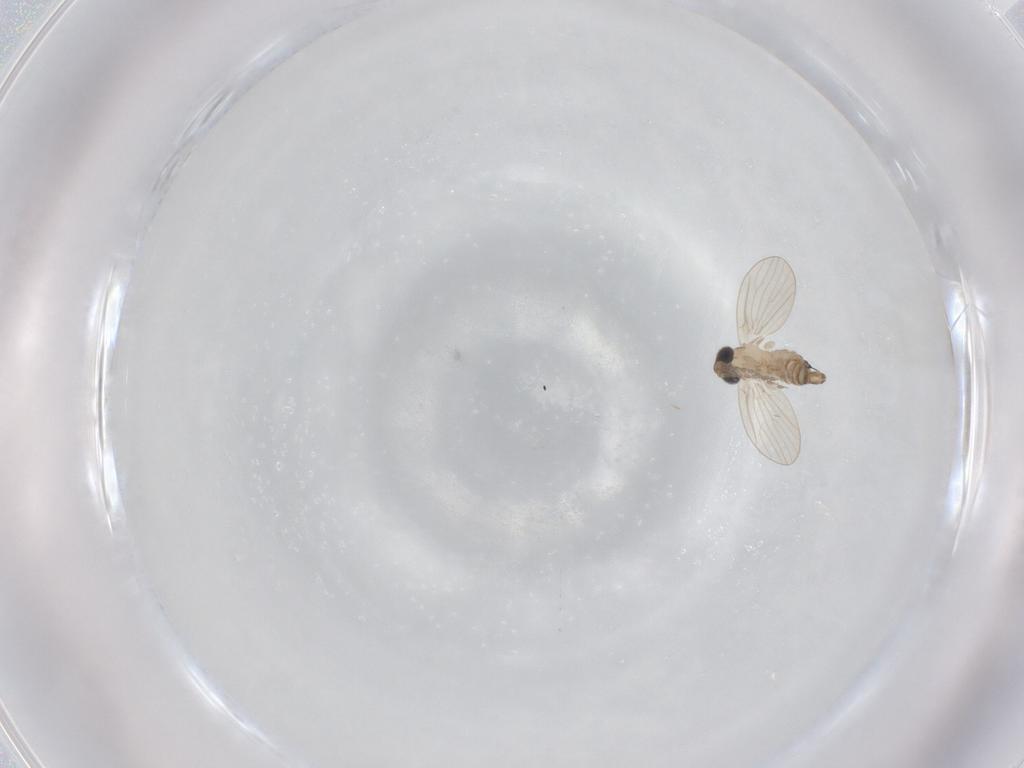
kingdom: Animalia
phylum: Arthropoda
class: Insecta
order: Diptera
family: Psychodidae
